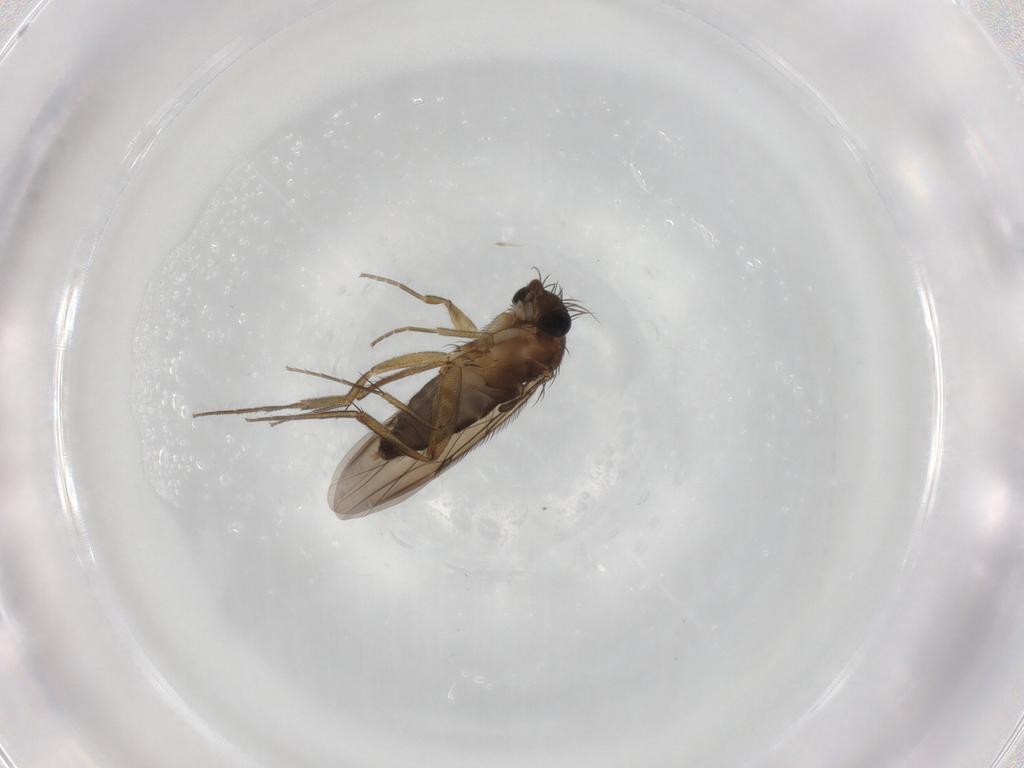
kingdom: Animalia
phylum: Arthropoda
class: Insecta
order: Diptera
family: Phoridae
